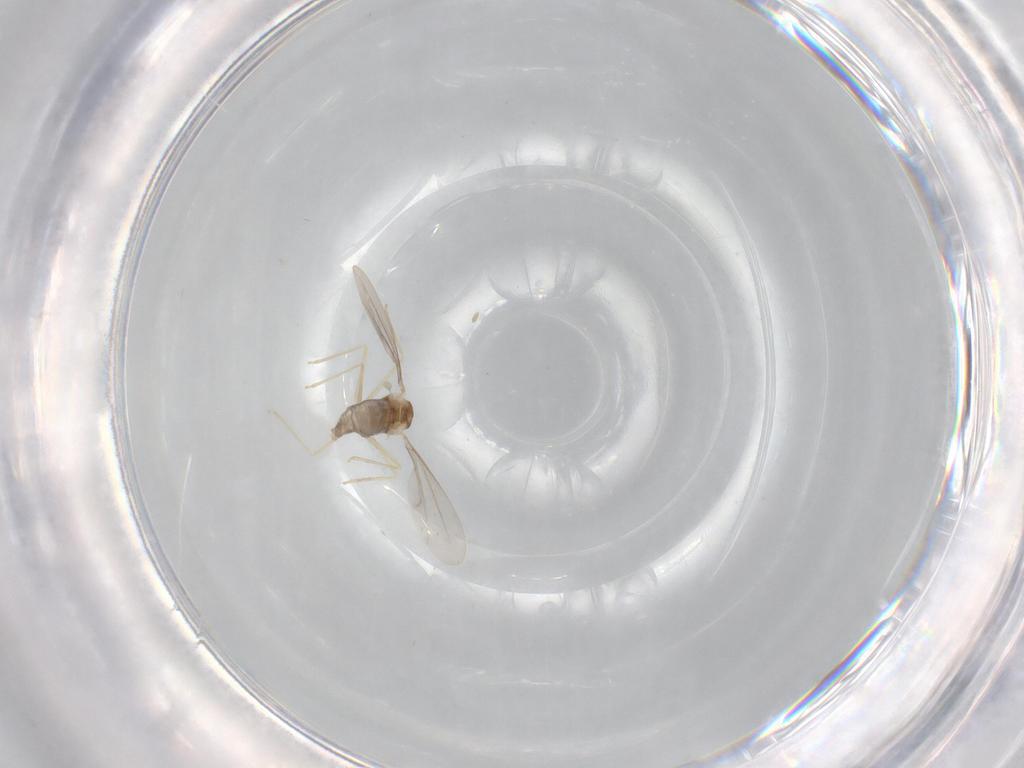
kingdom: Animalia
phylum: Arthropoda
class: Insecta
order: Diptera
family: Cecidomyiidae
